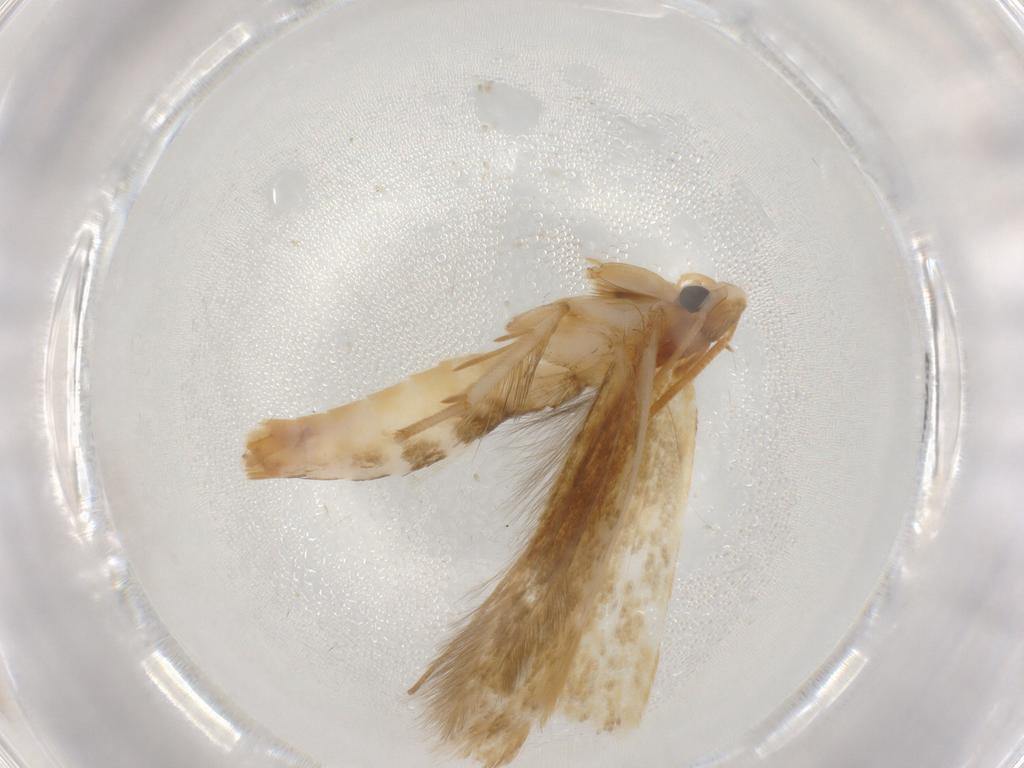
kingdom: Animalia
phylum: Arthropoda
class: Insecta
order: Lepidoptera
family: Tineidae
